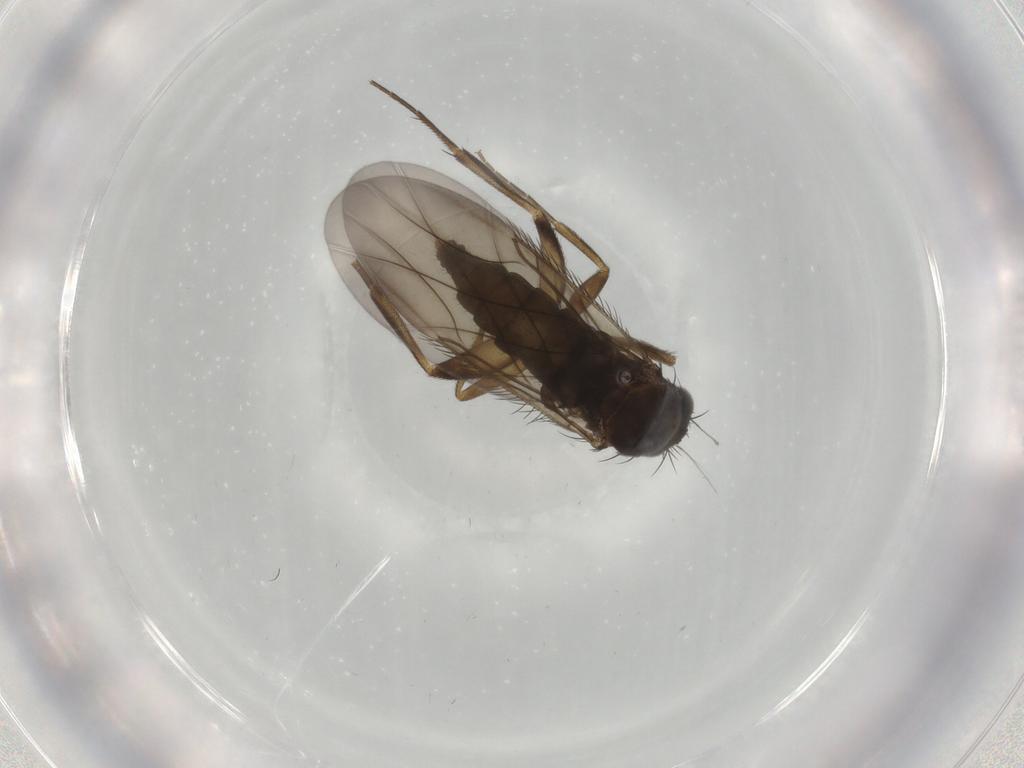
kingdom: Animalia
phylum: Arthropoda
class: Insecta
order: Diptera
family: Phoridae
